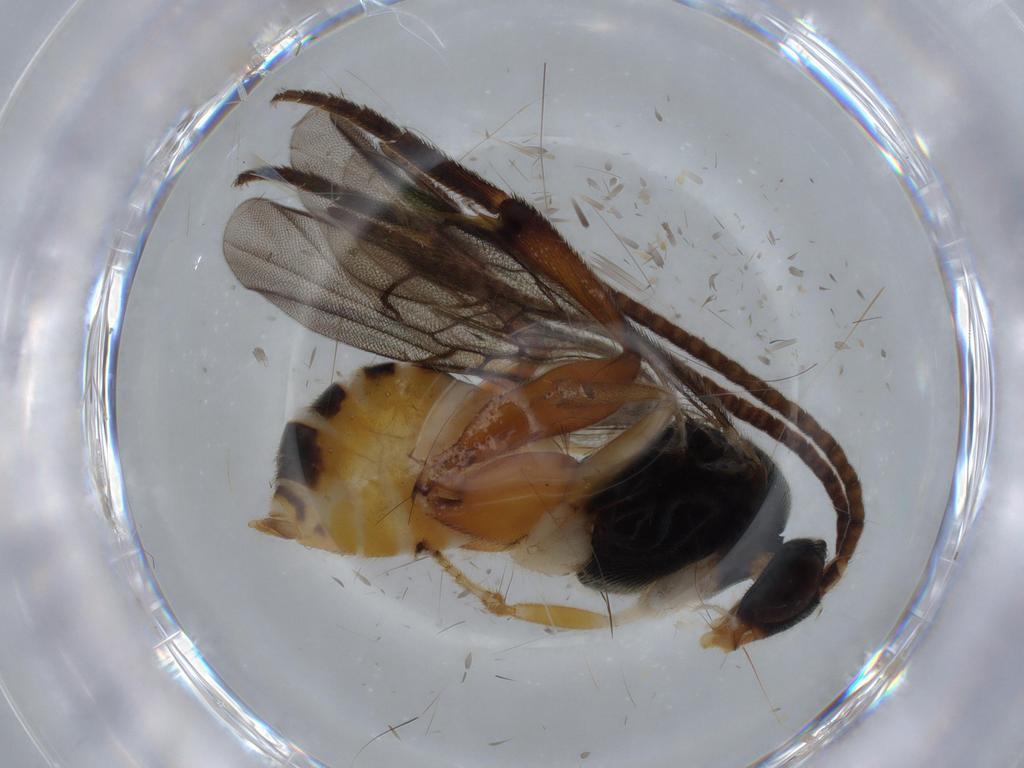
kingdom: Animalia
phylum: Arthropoda
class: Insecta
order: Hymenoptera
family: Braconidae
